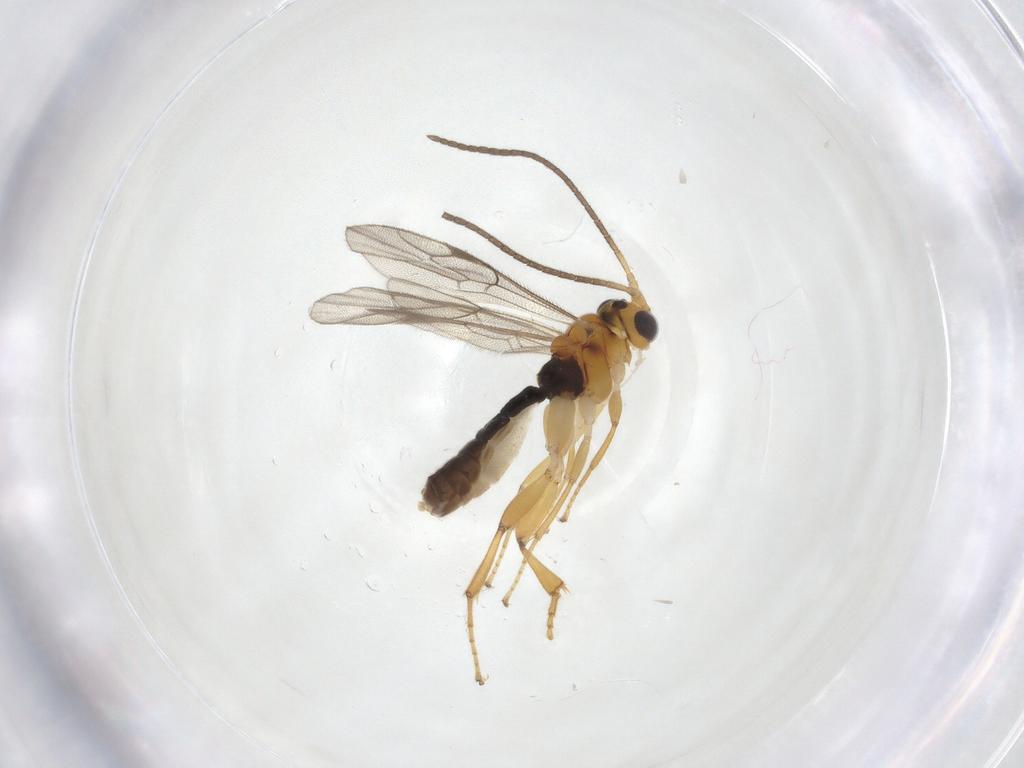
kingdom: Animalia
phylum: Arthropoda
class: Insecta
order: Hymenoptera
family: Ichneumonidae
